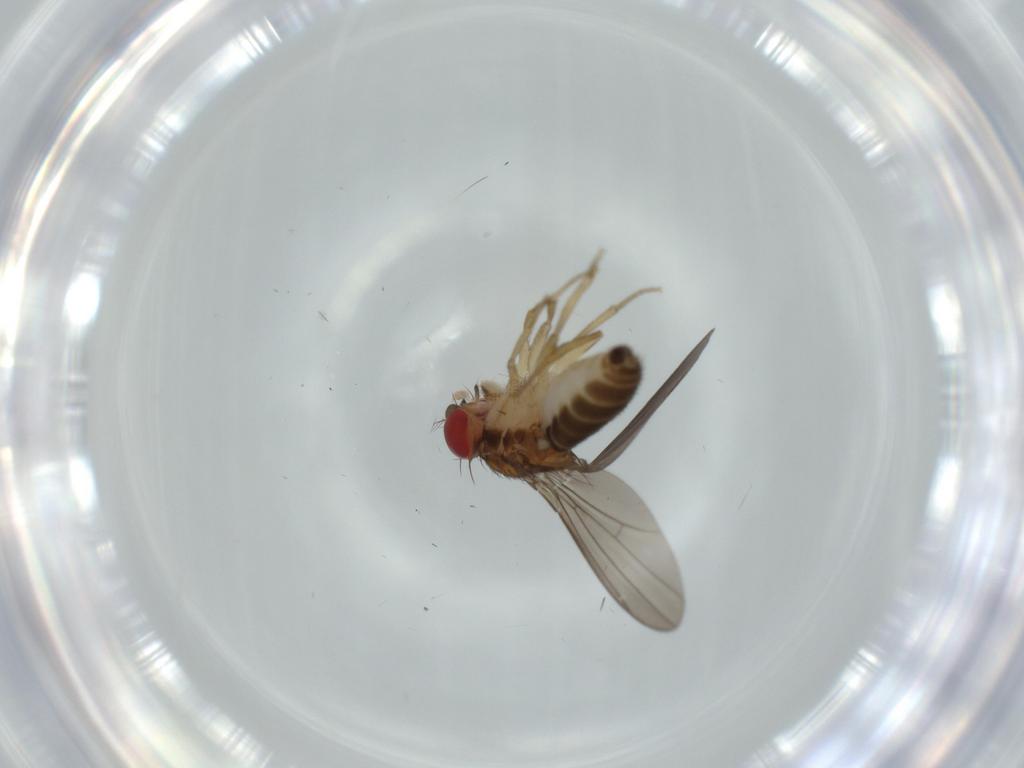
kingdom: Animalia
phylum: Arthropoda
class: Insecta
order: Diptera
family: Drosophilidae
